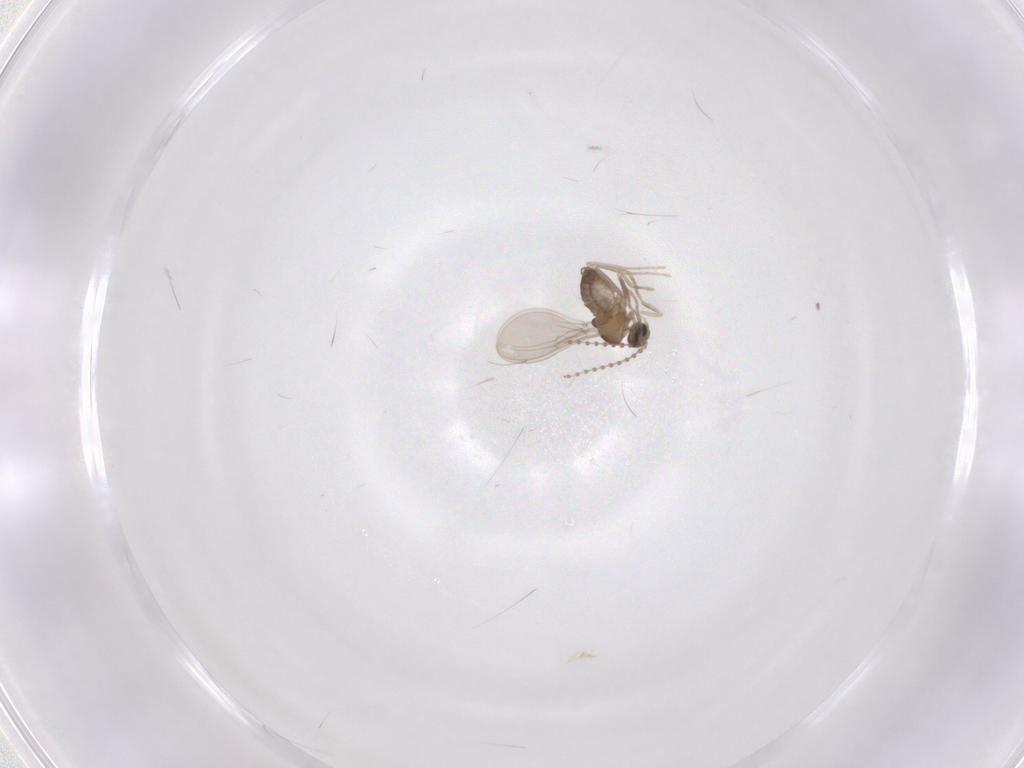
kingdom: Animalia
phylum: Arthropoda
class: Insecta
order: Diptera
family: Cecidomyiidae
